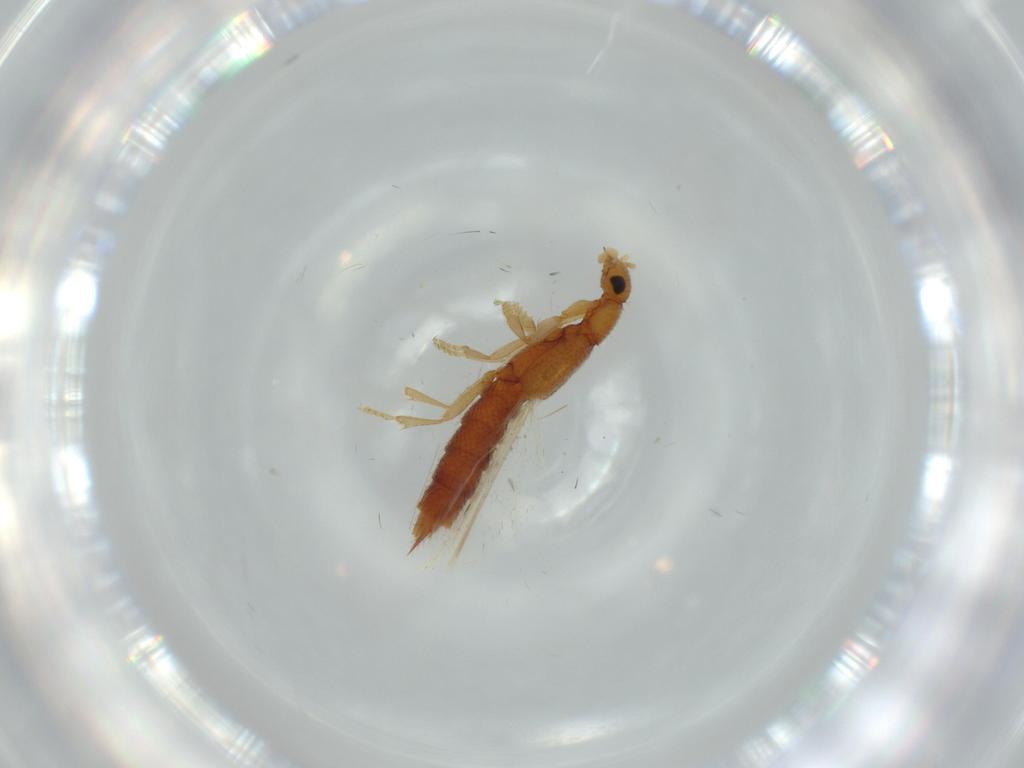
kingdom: Animalia
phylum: Arthropoda
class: Insecta
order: Coleoptera
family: Staphylinidae
